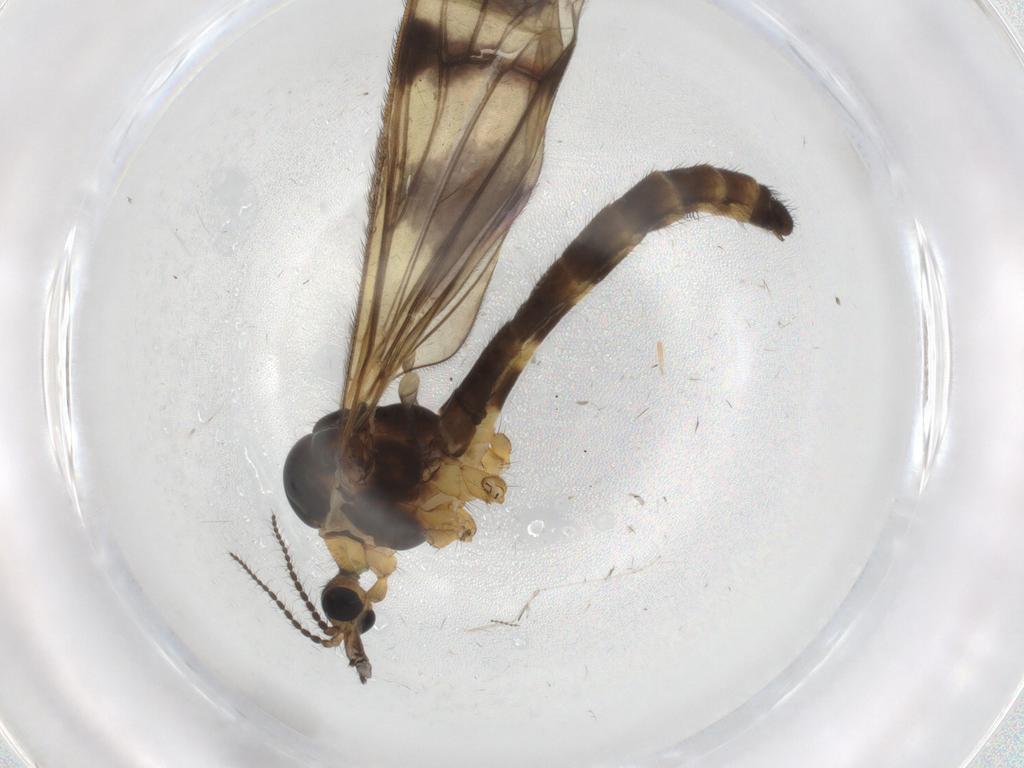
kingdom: Animalia
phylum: Arthropoda
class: Insecta
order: Diptera
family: Limoniidae
